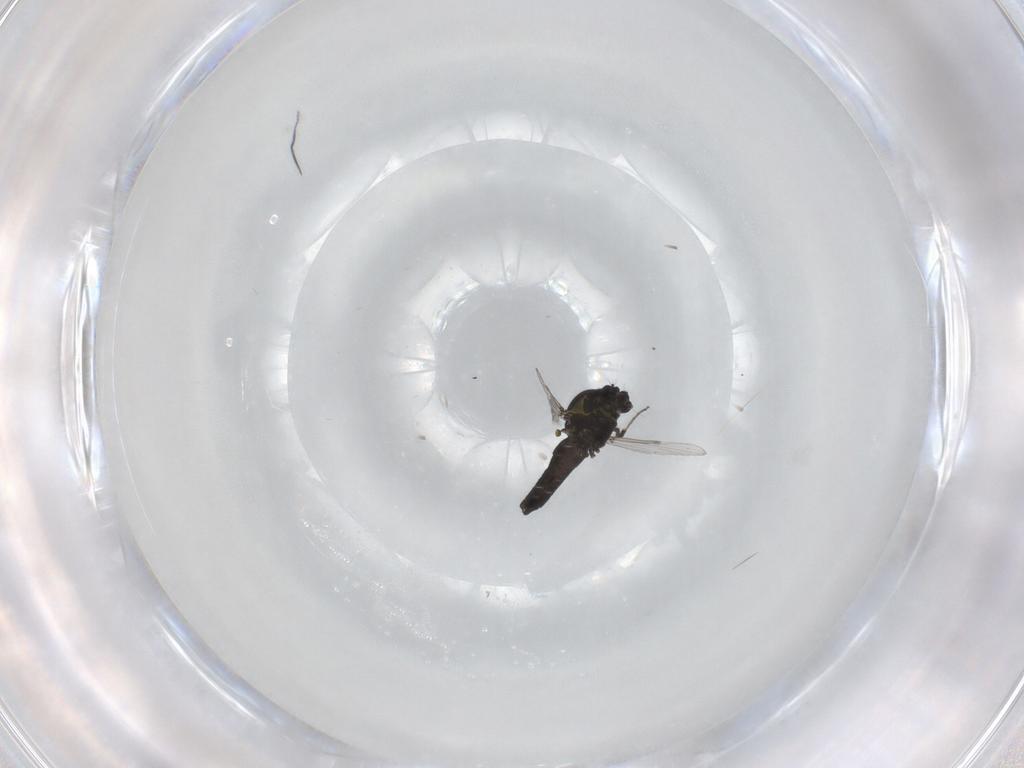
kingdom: Animalia
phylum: Arthropoda
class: Insecta
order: Diptera
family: Ceratopogonidae
